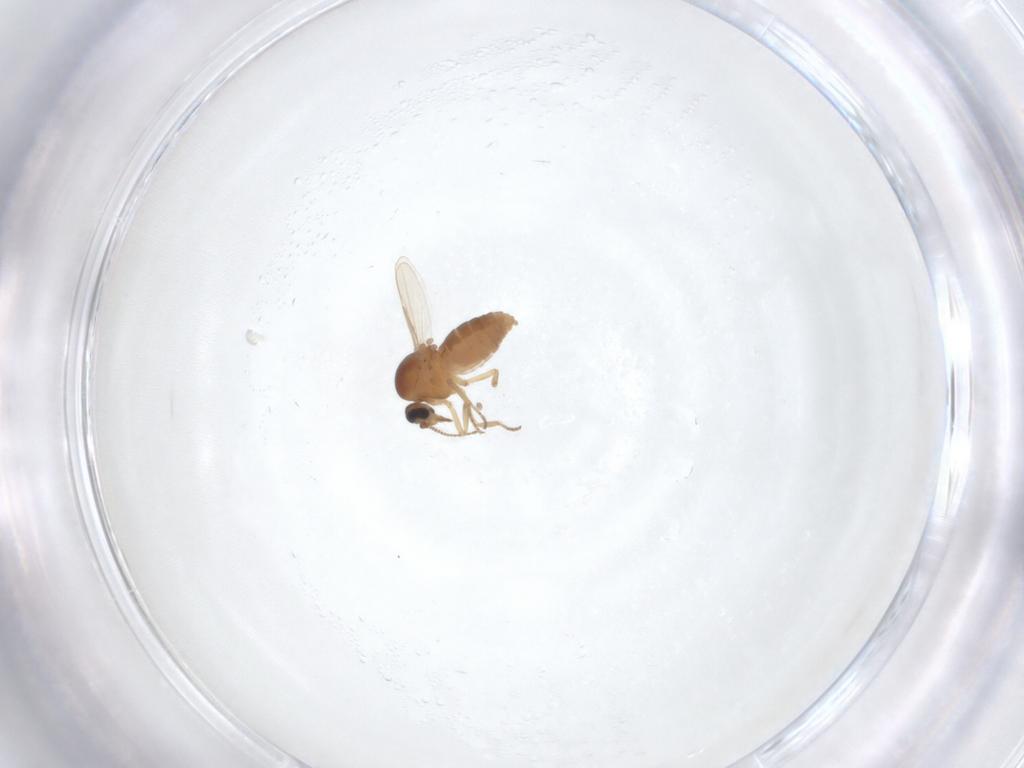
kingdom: Animalia
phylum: Arthropoda
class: Insecta
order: Diptera
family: Ceratopogonidae
